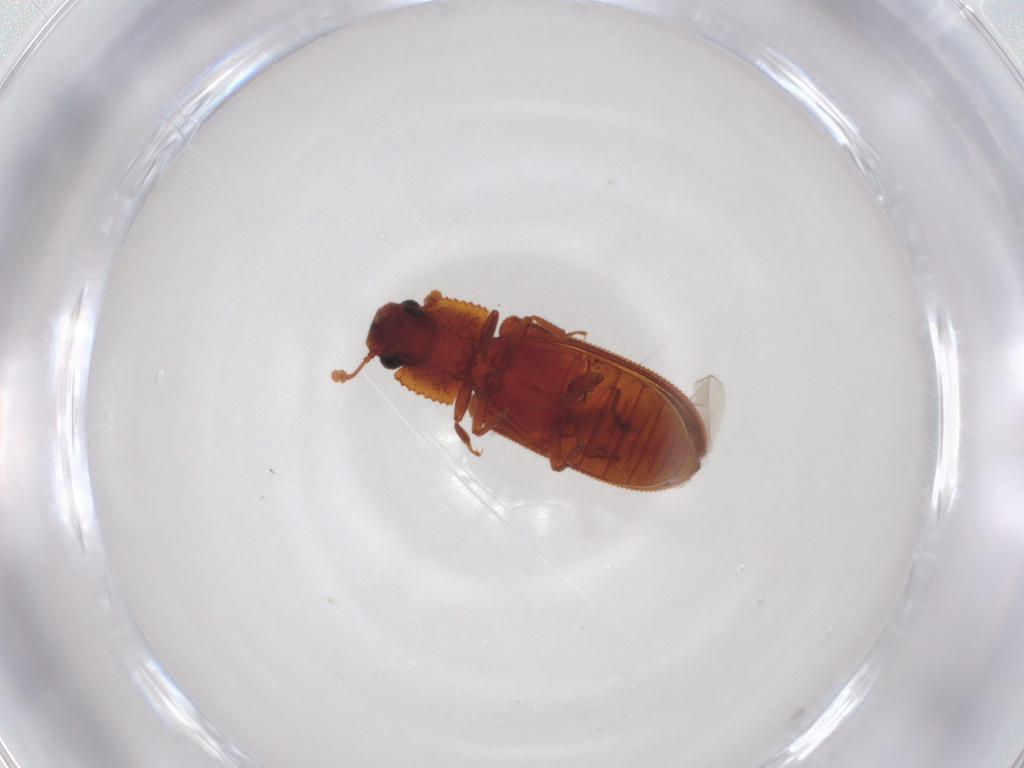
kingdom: Animalia
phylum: Arthropoda
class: Insecta
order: Coleoptera
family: Zopheridae
